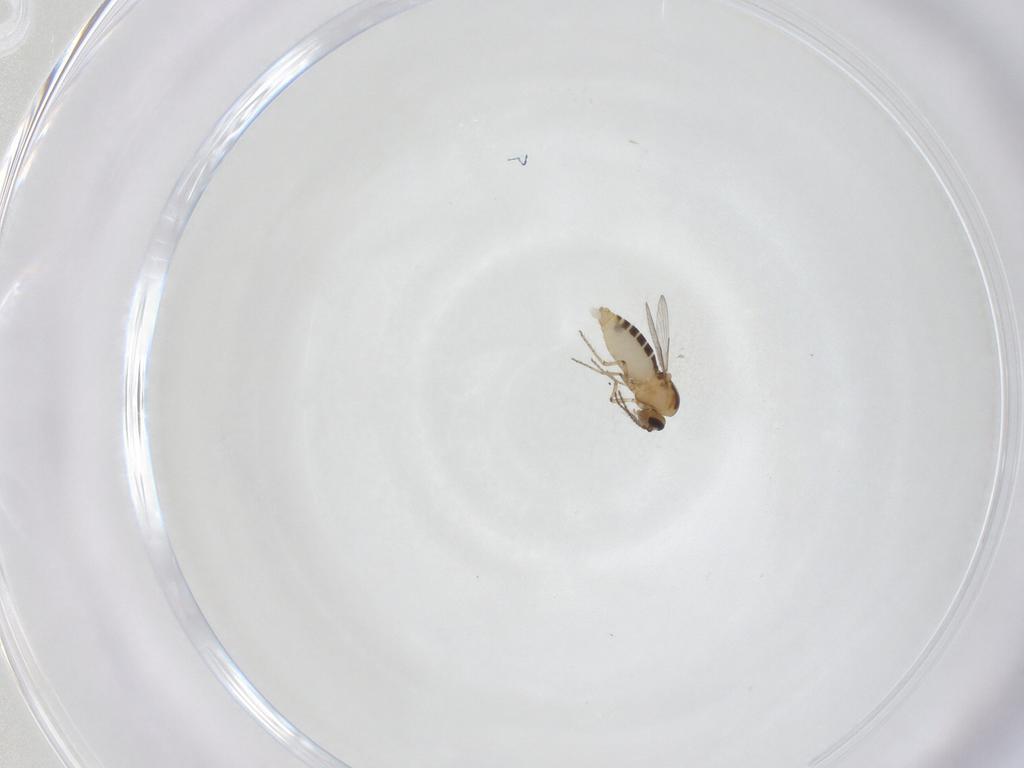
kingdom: Animalia
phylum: Arthropoda
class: Insecta
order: Diptera
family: Ceratopogonidae
